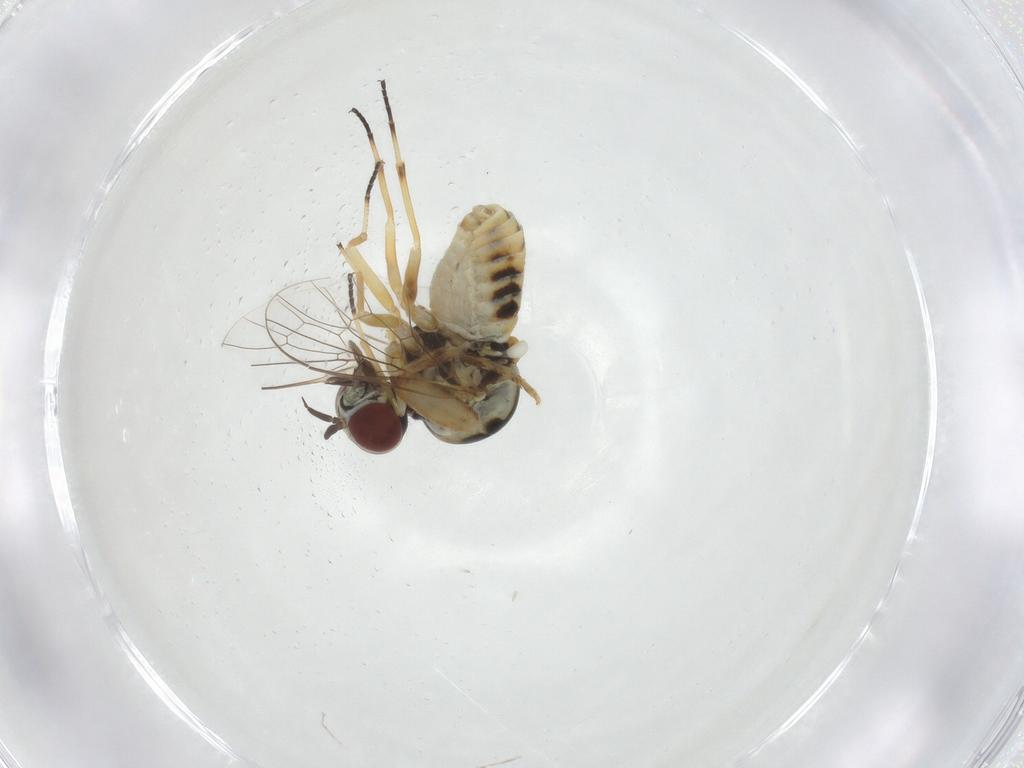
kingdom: Animalia
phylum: Arthropoda
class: Insecta
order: Diptera
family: Mythicomyiidae
